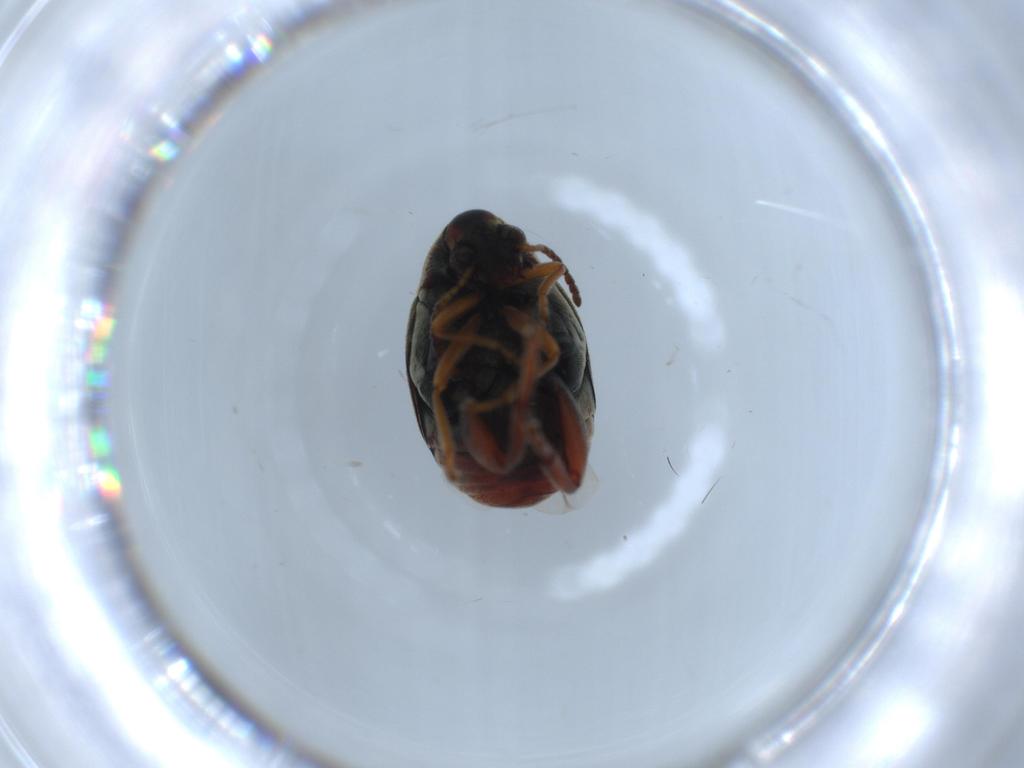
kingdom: Animalia
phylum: Arthropoda
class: Insecta
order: Coleoptera
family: Chrysomelidae
